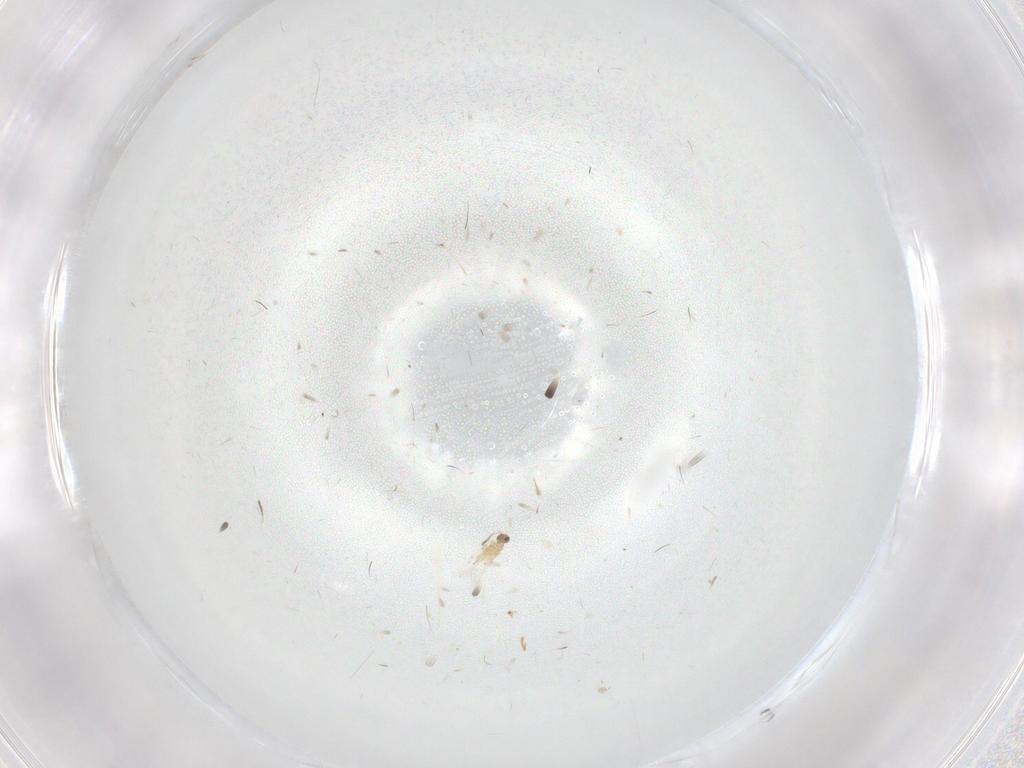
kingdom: Animalia
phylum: Arthropoda
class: Insecta
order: Hymenoptera
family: Mymaridae
